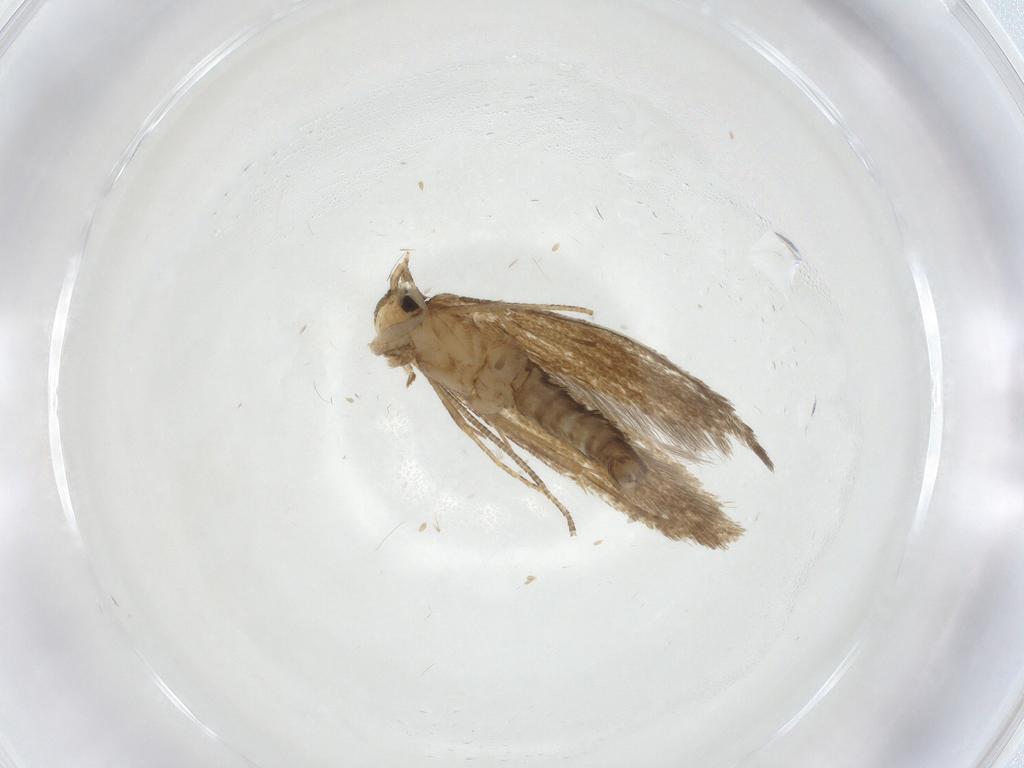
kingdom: Animalia
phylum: Arthropoda
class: Insecta
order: Lepidoptera
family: Tineidae
